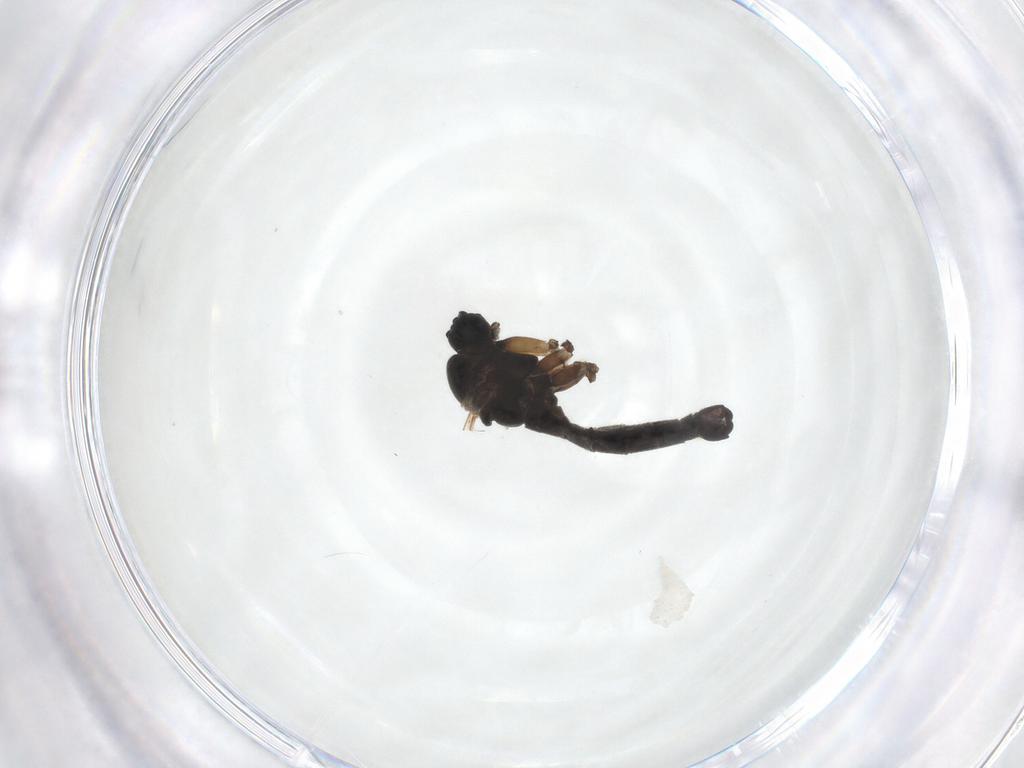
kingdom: Animalia
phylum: Arthropoda
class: Insecta
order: Diptera
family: Sciaridae
